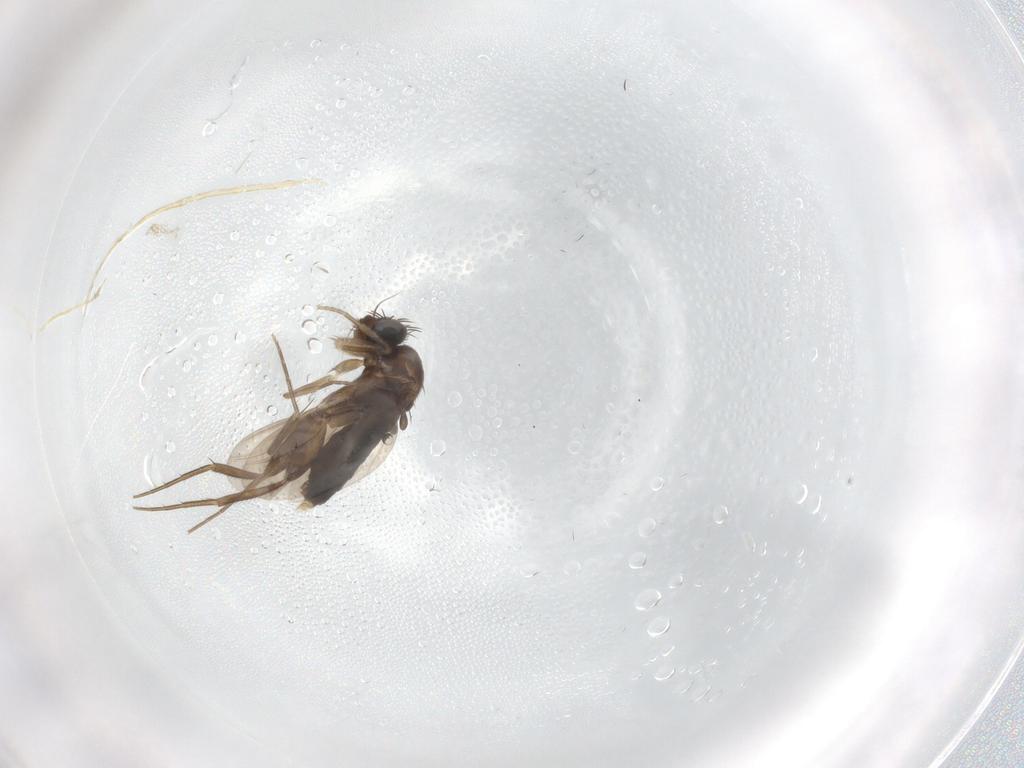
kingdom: Animalia
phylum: Arthropoda
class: Insecta
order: Diptera
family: Phoridae
